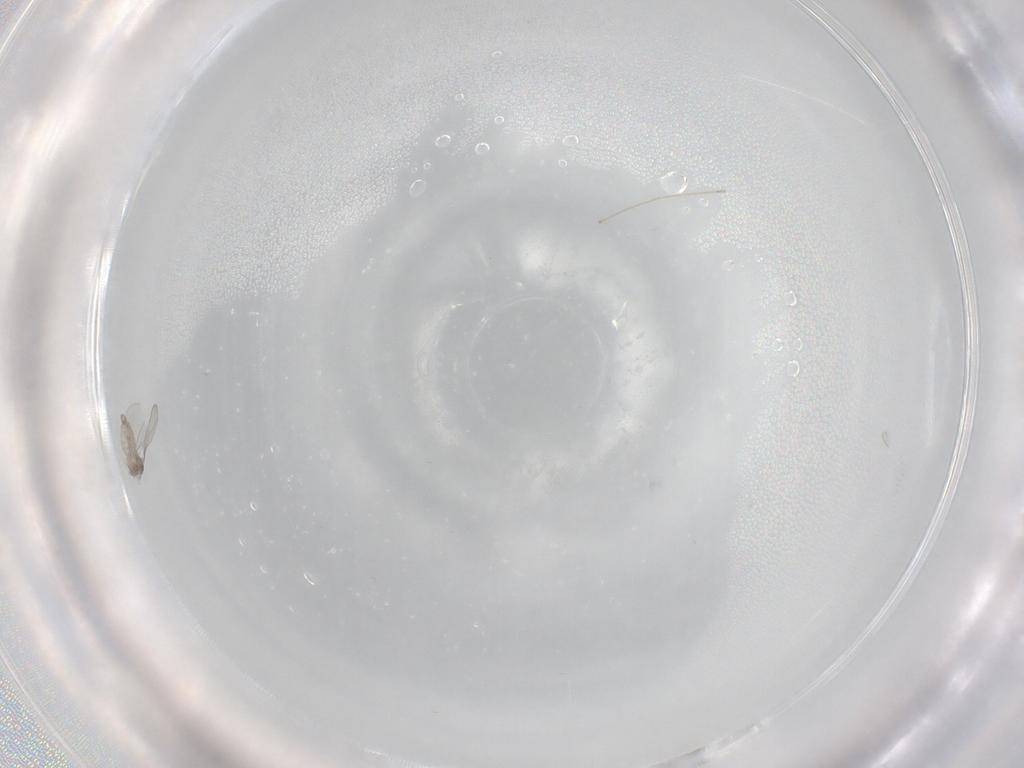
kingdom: Animalia
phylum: Arthropoda
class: Insecta
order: Diptera
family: Cecidomyiidae
